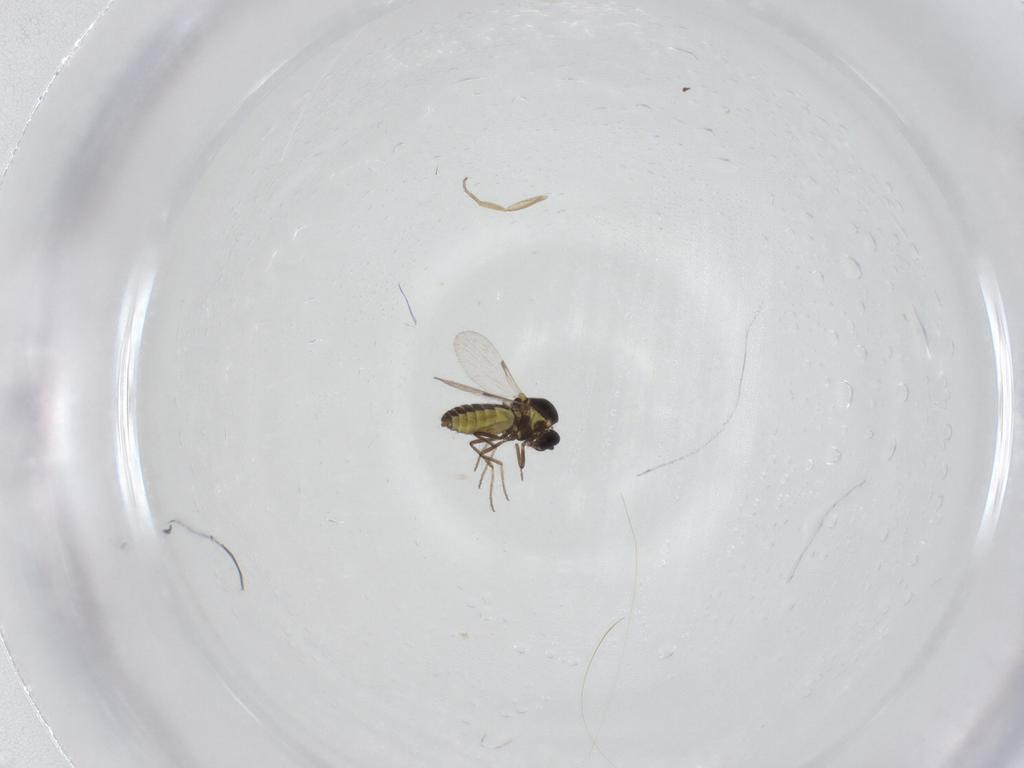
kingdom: Animalia
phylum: Arthropoda
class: Insecta
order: Diptera
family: Ceratopogonidae
